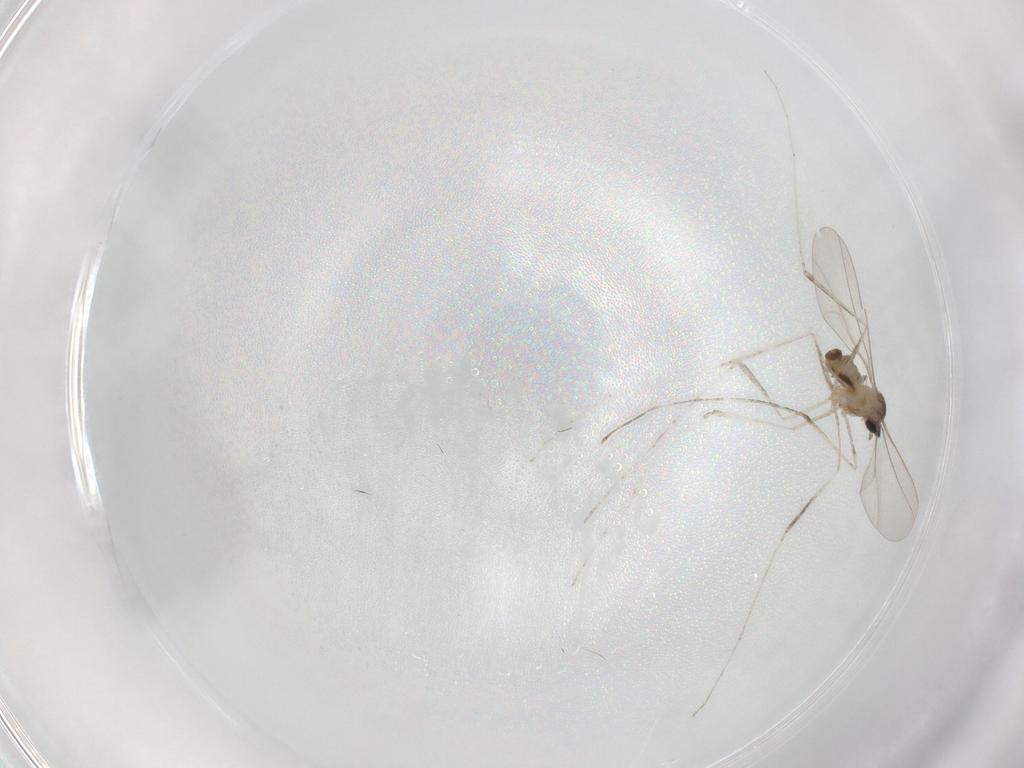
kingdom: Animalia
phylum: Arthropoda
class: Insecta
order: Diptera
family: Cecidomyiidae
